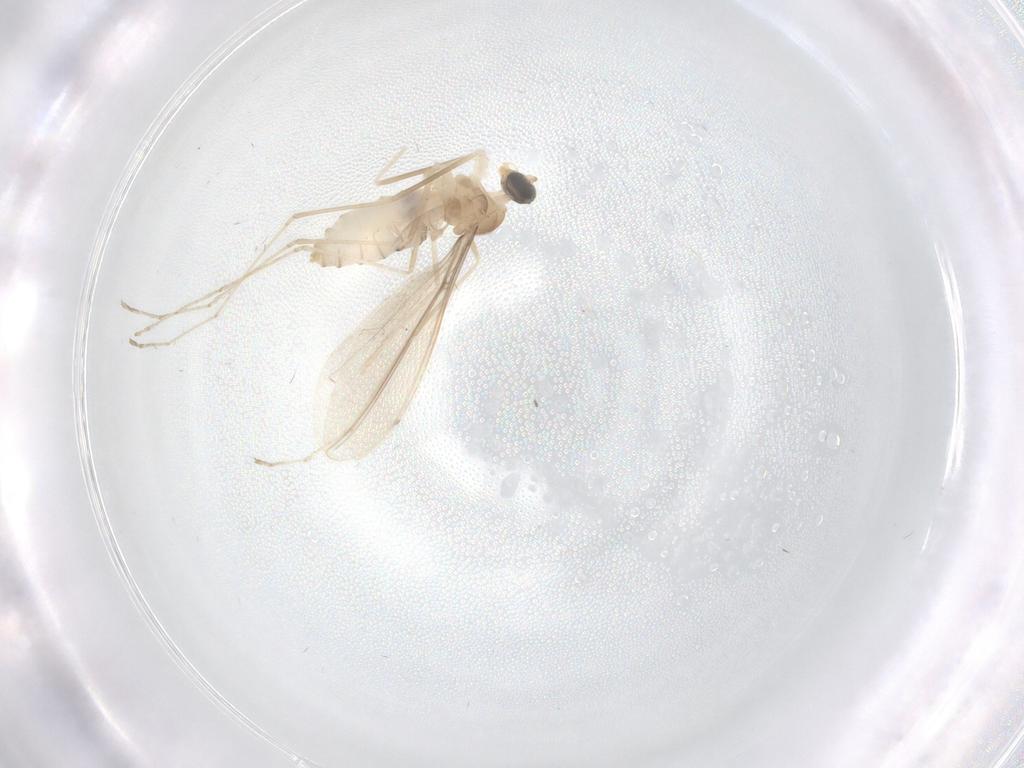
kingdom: Animalia
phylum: Arthropoda
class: Insecta
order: Diptera
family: Cecidomyiidae
